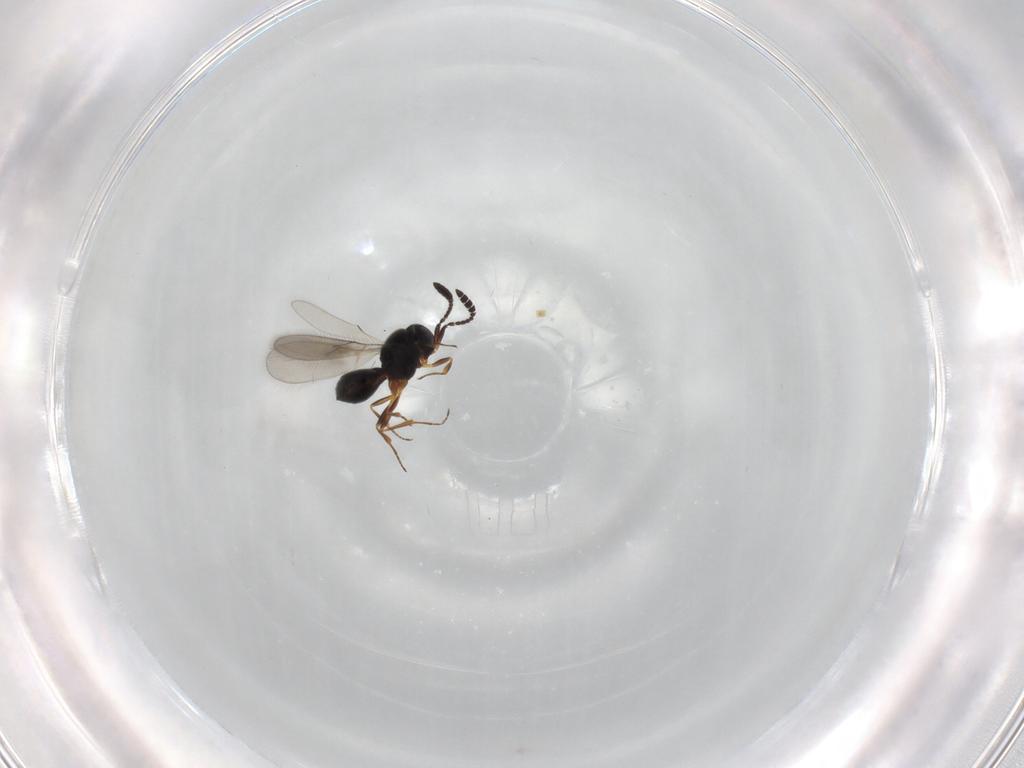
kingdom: Animalia
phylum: Arthropoda
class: Insecta
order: Hymenoptera
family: Scelionidae
